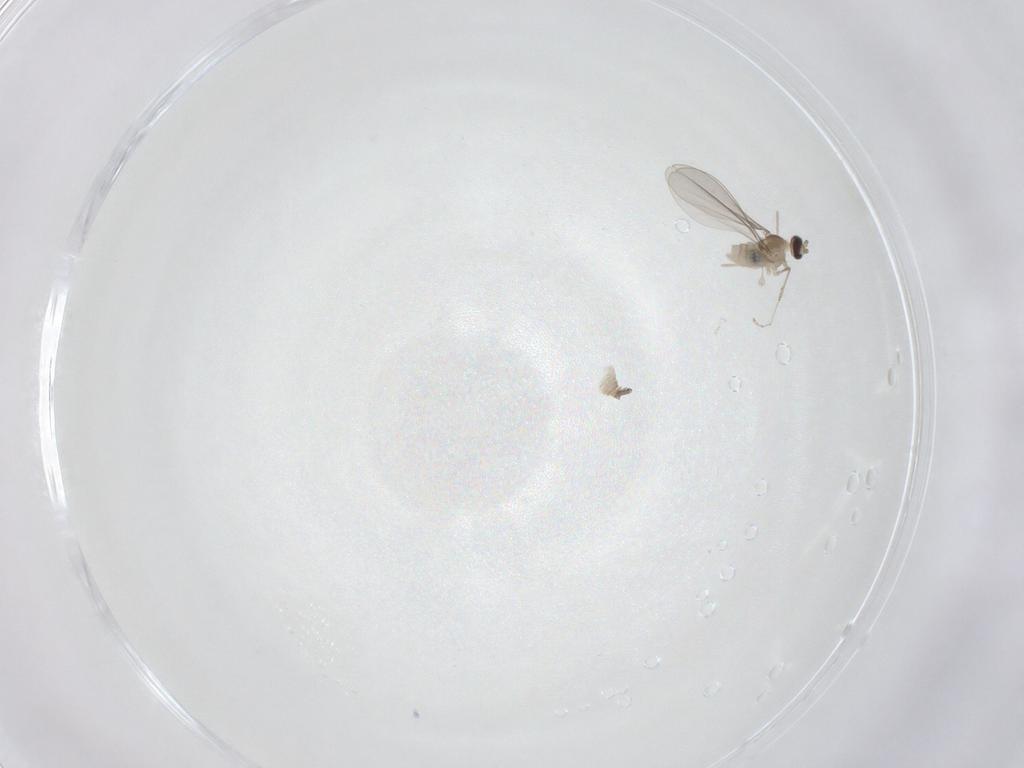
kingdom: Animalia
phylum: Arthropoda
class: Insecta
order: Diptera
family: Cecidomyiidae
